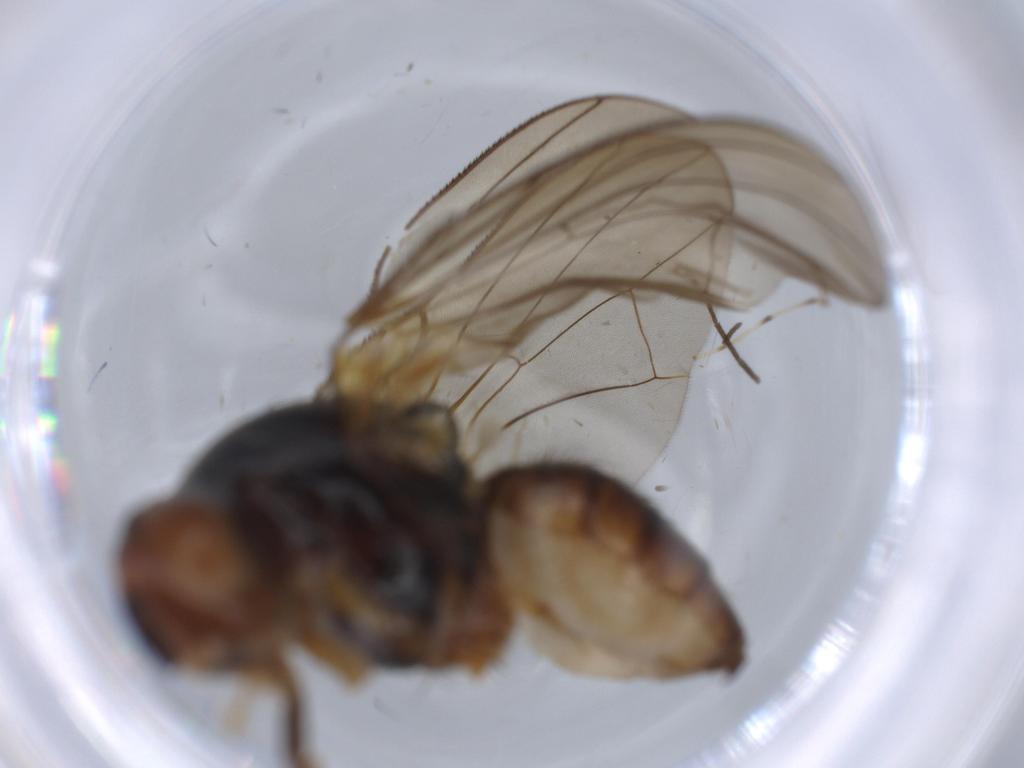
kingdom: Animalia
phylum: Arthropoda
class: Insecta
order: Diptera
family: Anthomyiidae
